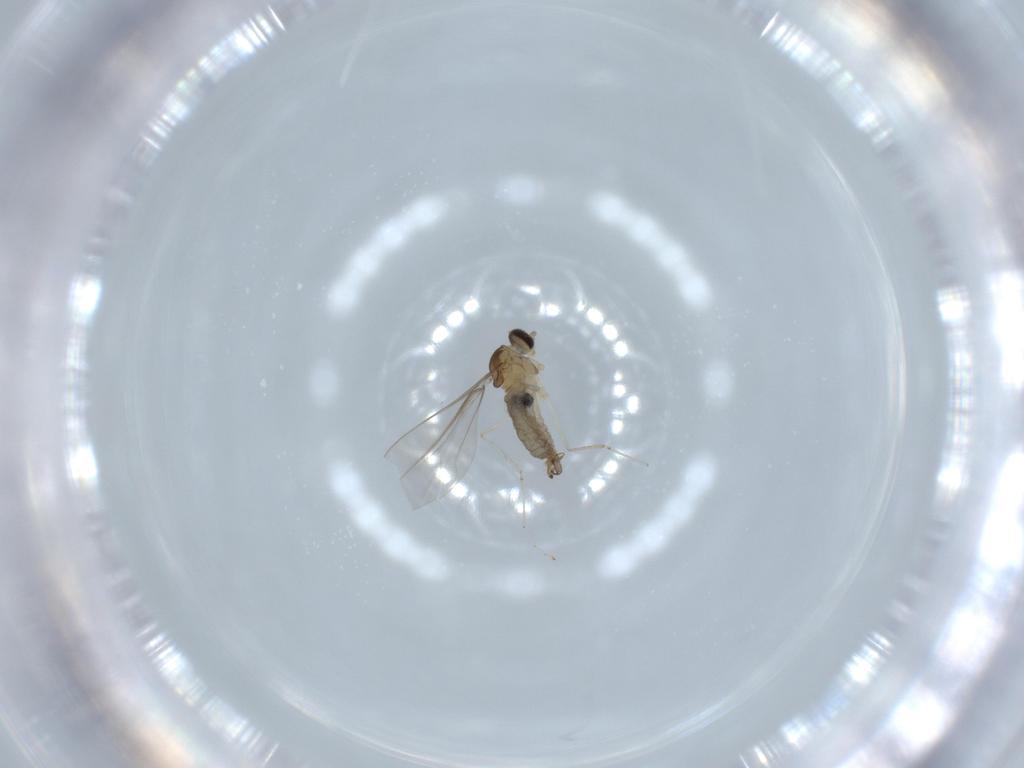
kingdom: Animalia
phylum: Arthropoda
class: Insecta
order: Diptera
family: Cecidomyiidae
